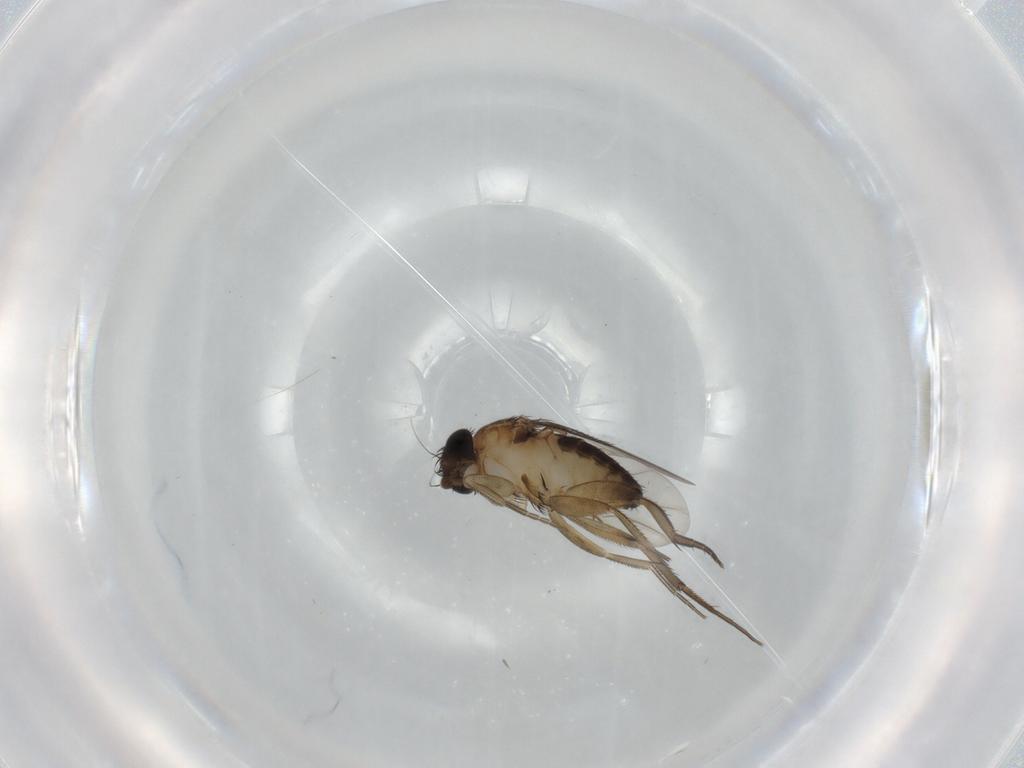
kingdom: Animalia
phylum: Arthropoda
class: Insecta
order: Diptera
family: Phoridae
